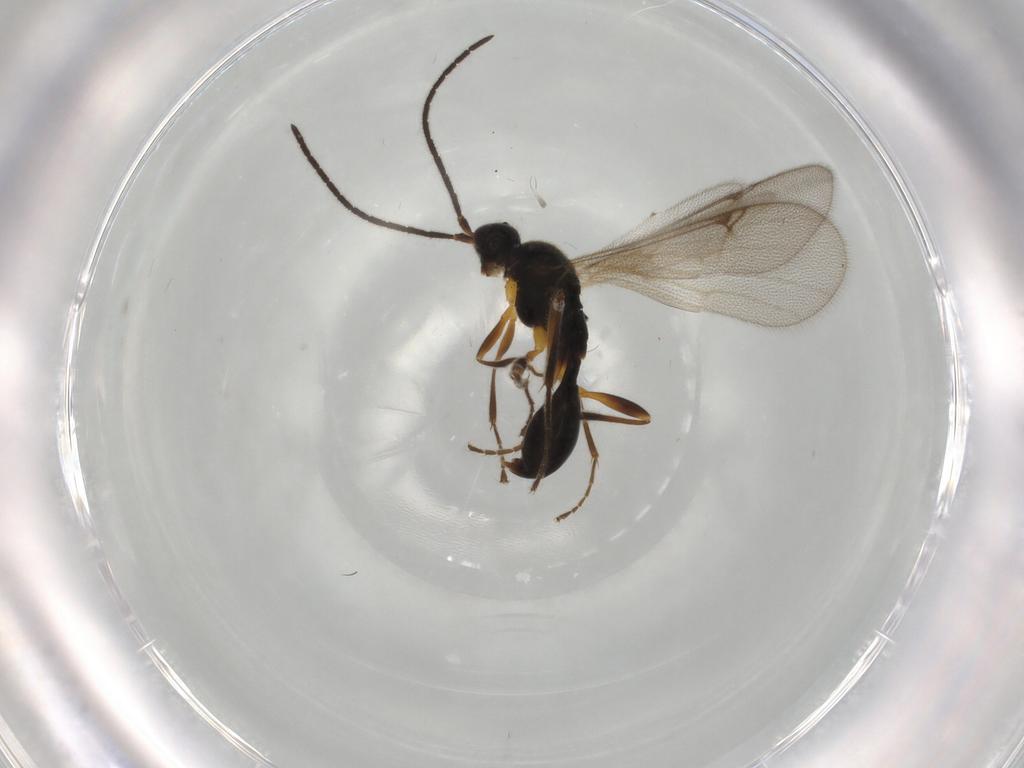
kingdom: Animalia
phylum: Arthropoda
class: Insecta
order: Hymenoptera
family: Proctotrupidae
